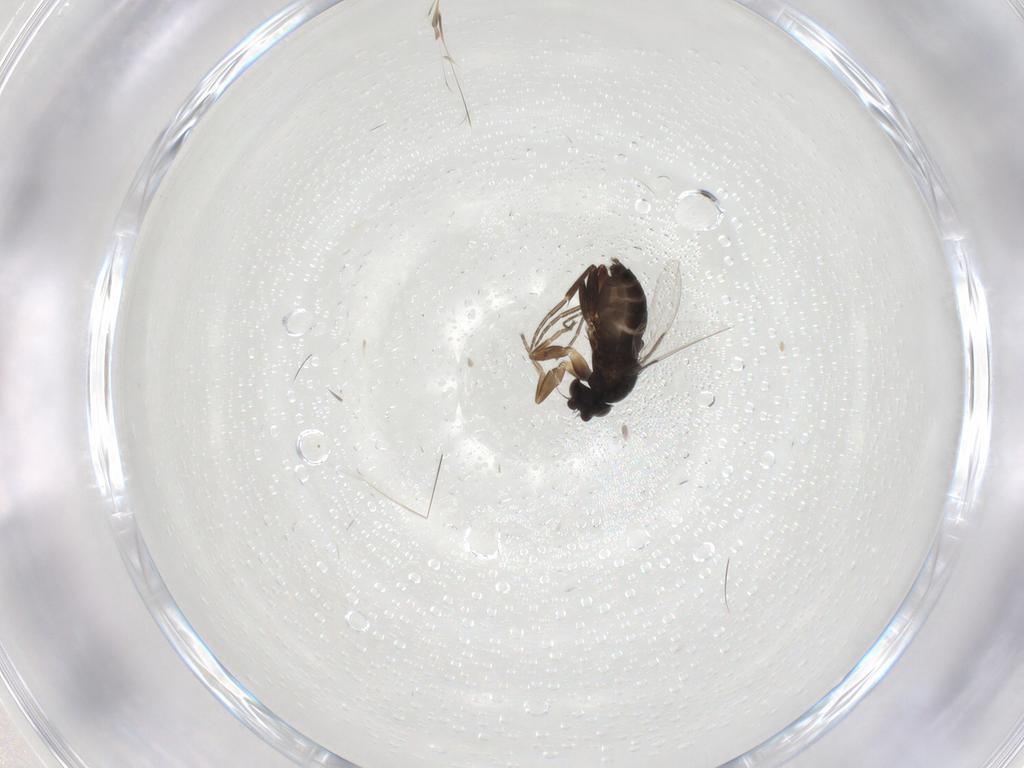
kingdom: Animalia
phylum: Arthropoda
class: Insecta
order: Diptera
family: Phoridae
